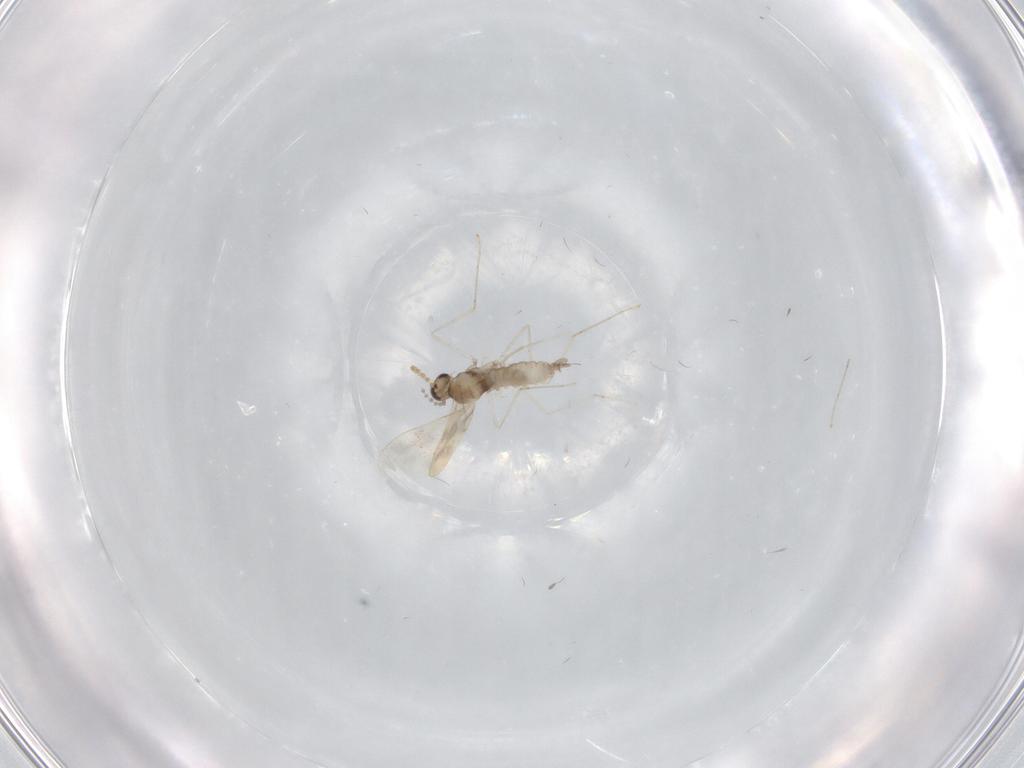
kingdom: Animalia
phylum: Arthropoda
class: Insecta
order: Diptera
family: Cecidomyiidae
